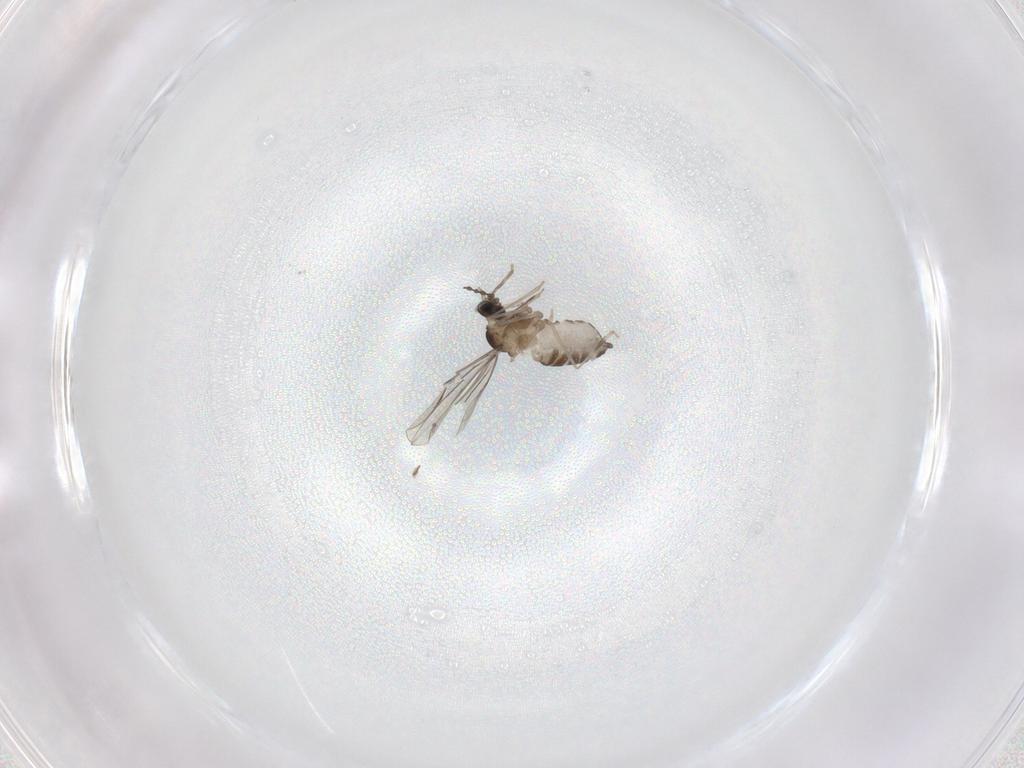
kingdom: Animalia
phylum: Arthropoda
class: Insecta
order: Diptera
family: Cecidomyiidae
